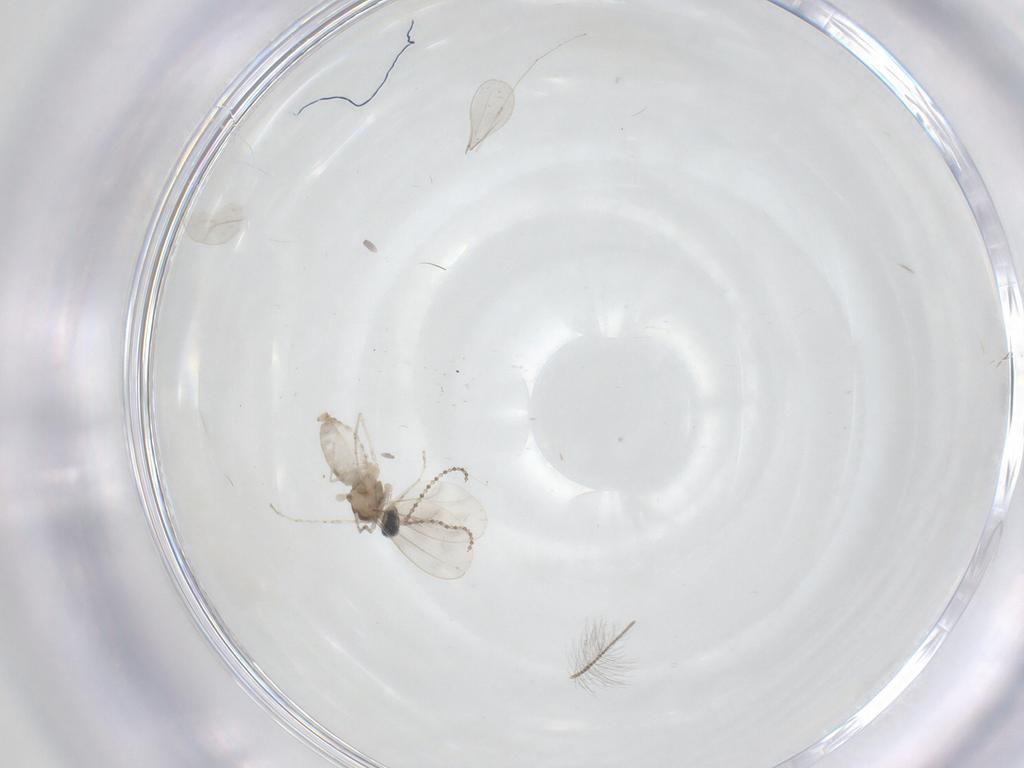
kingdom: Animalia
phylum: Arthropoda
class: Insecta
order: Diptera
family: Cecidomyiidae
